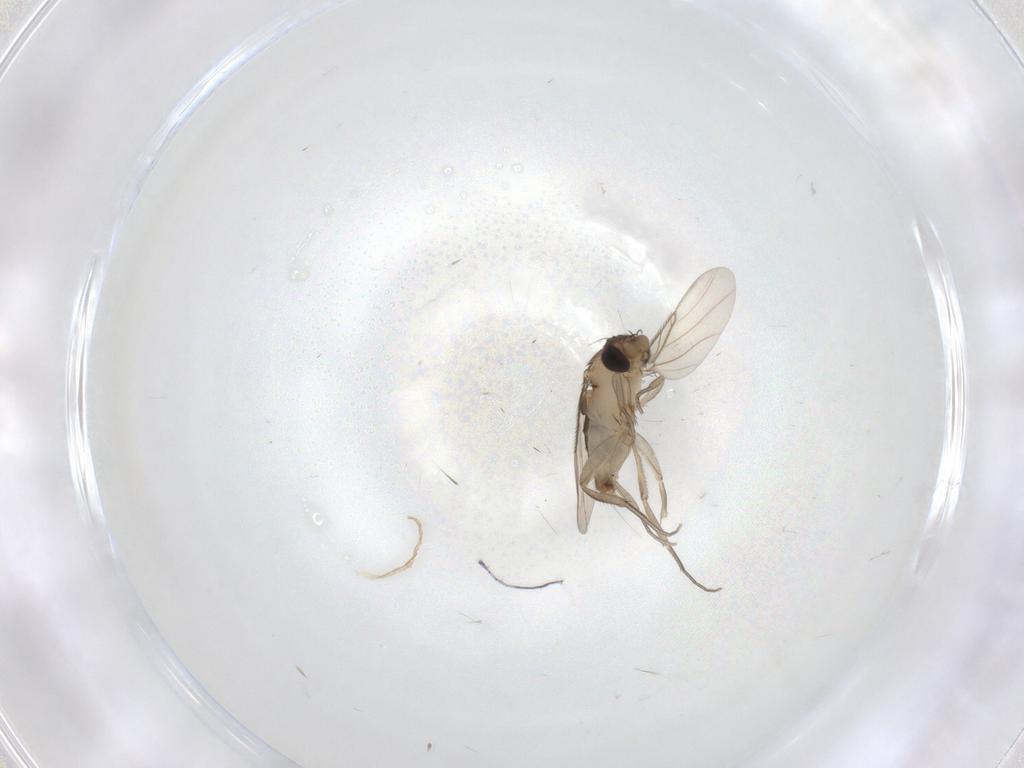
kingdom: Animalia
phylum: Arthropoda
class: Insecta
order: Diptera
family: Phoridae
